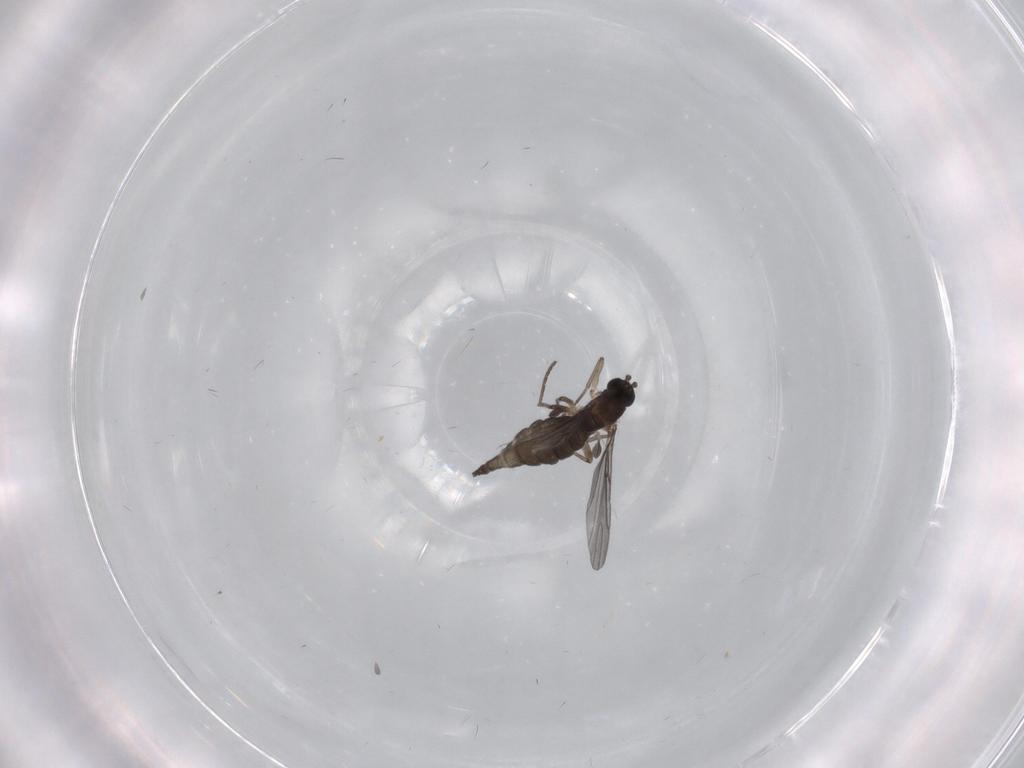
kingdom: Animalia
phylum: Arthropoda
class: Insecta
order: Diptera
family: Sciaridae
